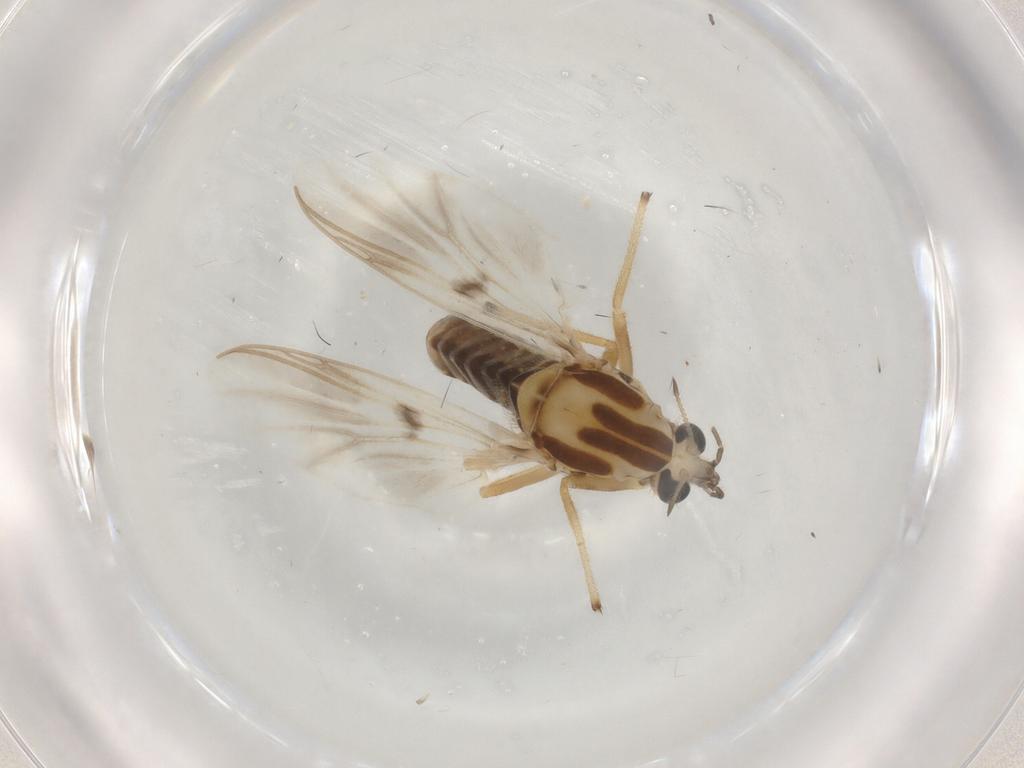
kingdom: Animalia
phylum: Arthropoda
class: Insecta
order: Diptera
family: Chironomidae
